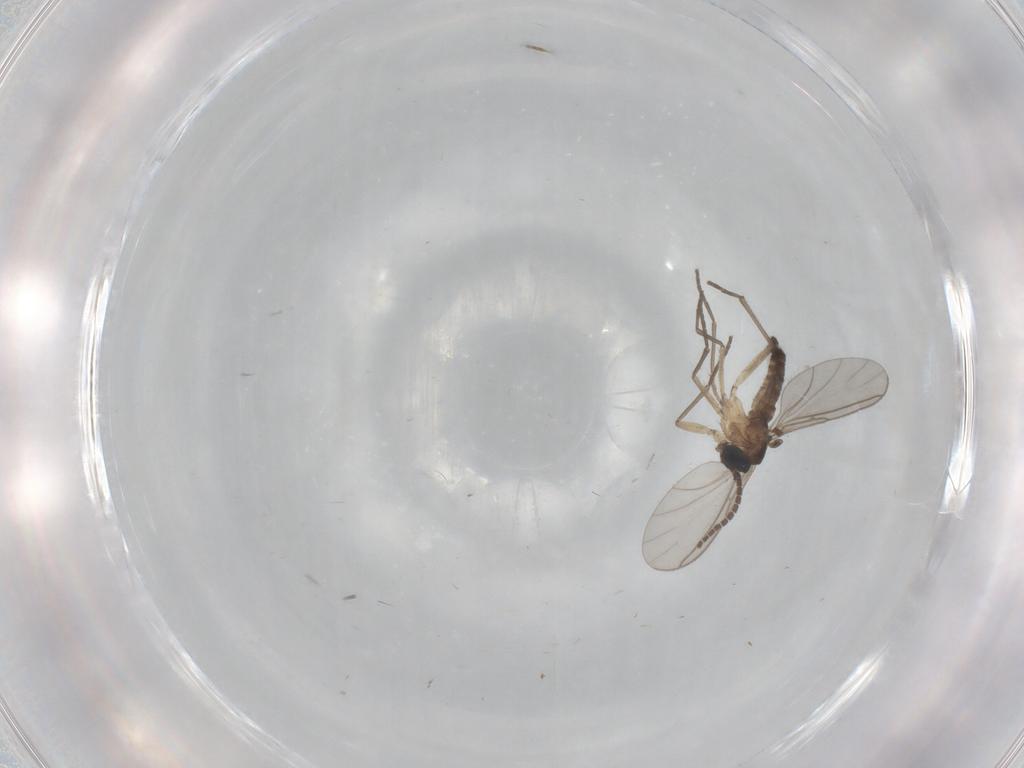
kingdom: Animalia
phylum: Arthropoda
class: Insecta
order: Diptera
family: Sciaridae
